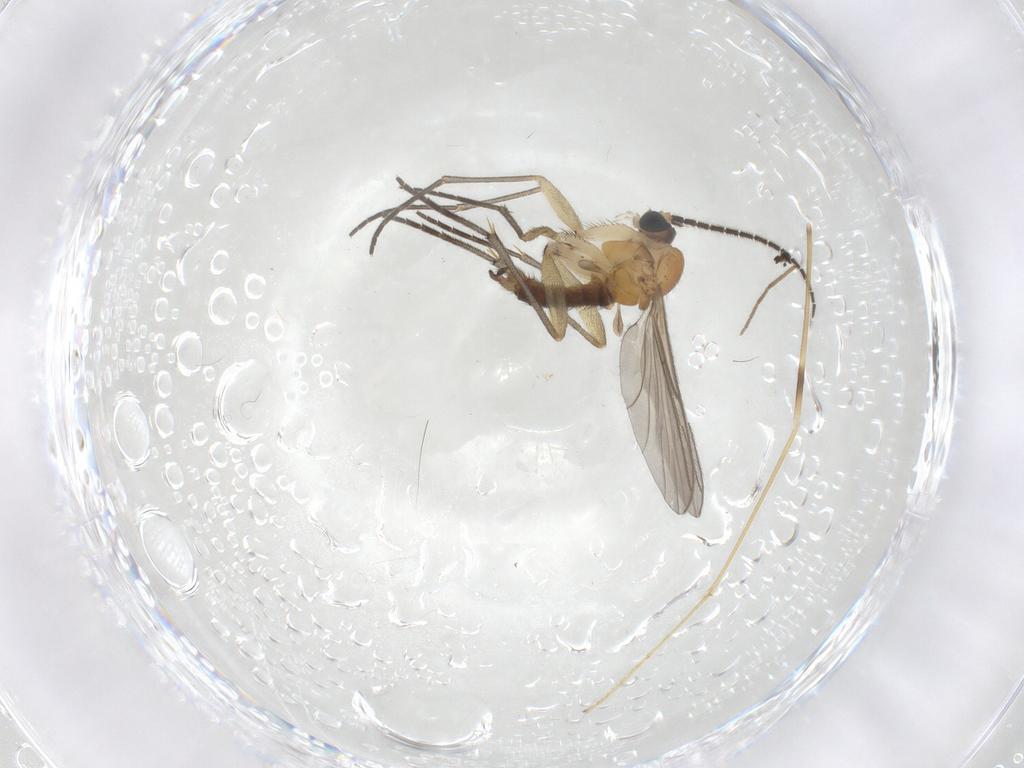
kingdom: Animalia
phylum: Arthropoda
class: Insecta
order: Diptera
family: Sciaridae
